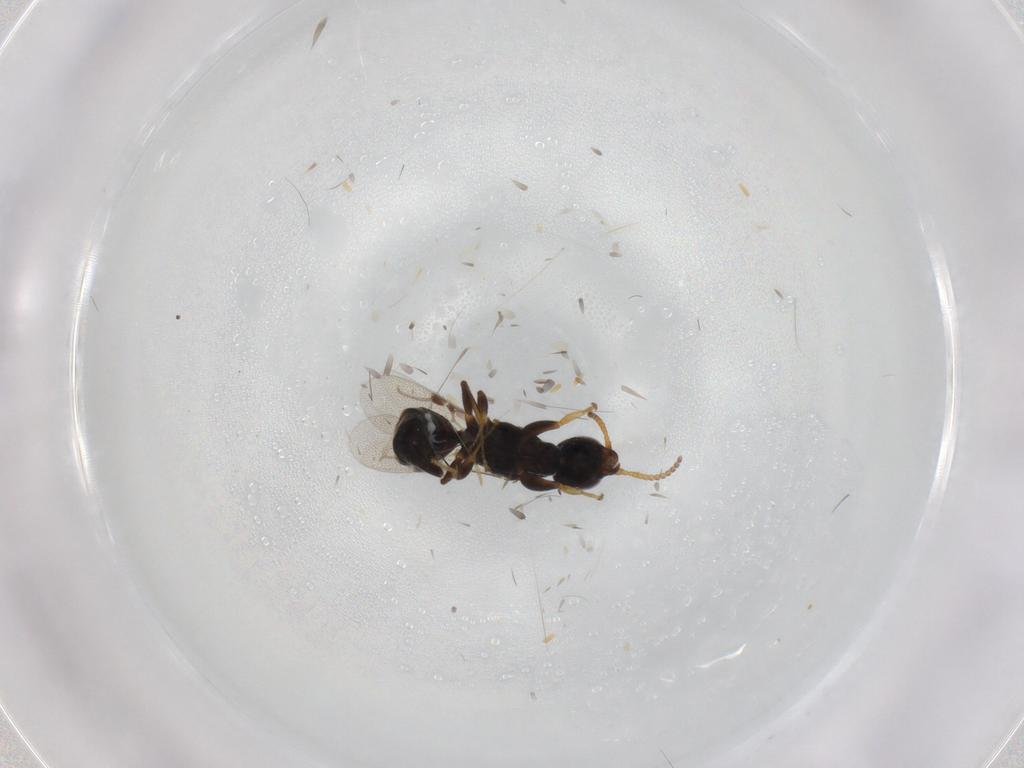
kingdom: Animalia
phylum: Arthropoda
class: Insecta
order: Hymenoptera
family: Bethylidae
